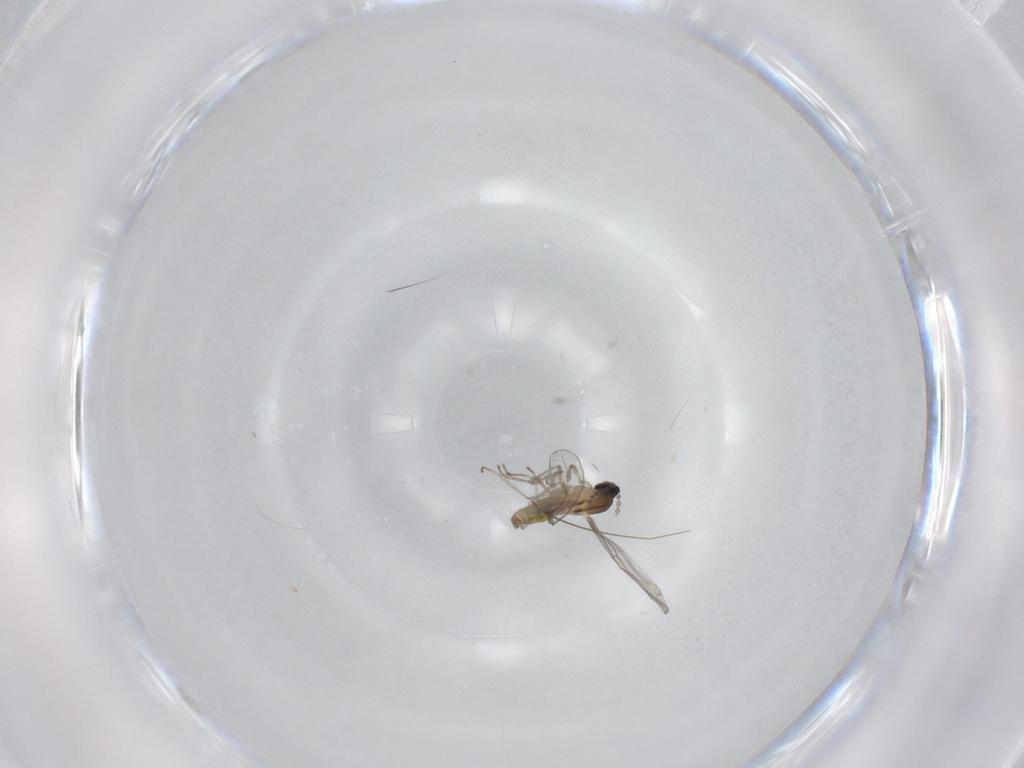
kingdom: Animalia
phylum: Arthropoda
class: Insecta
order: Diptera
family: Cecidomyiidae
